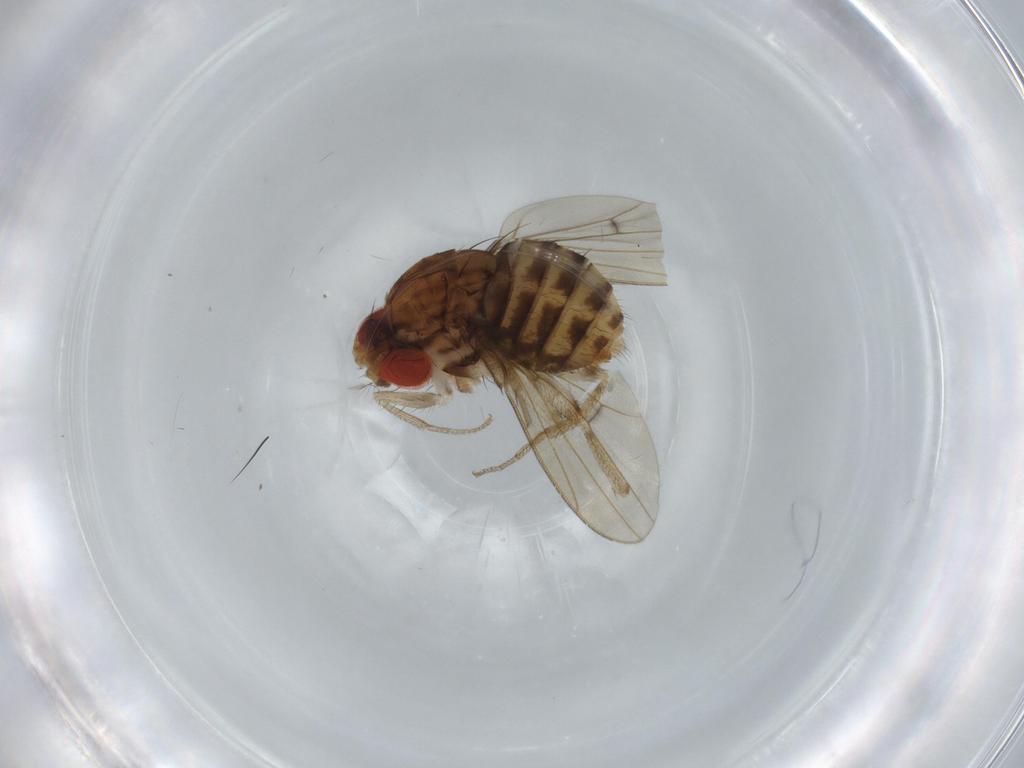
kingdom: Animalia
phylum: Arthropoda
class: Insecta
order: Diptera
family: Drosophilidae
